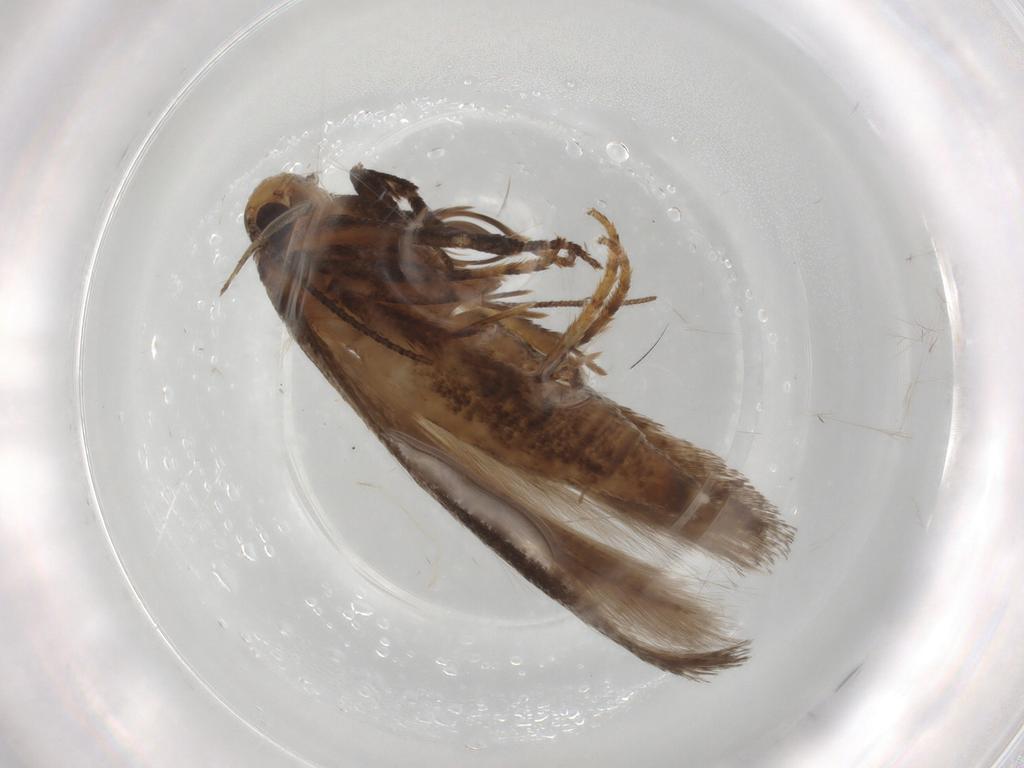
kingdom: Animalia
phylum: Arthropoda
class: Insecta
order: Lepidoptera
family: Gelechiidae
